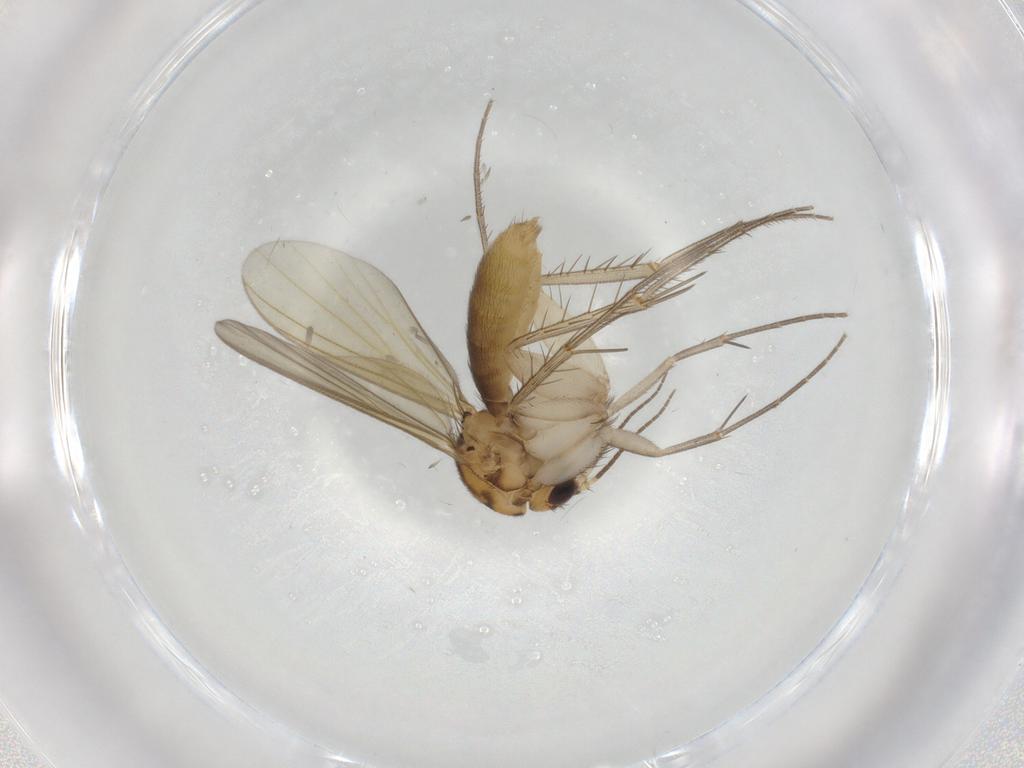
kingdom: Animalia
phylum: Arthropoda
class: Insecta
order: Diptera
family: Mycetophilidae
